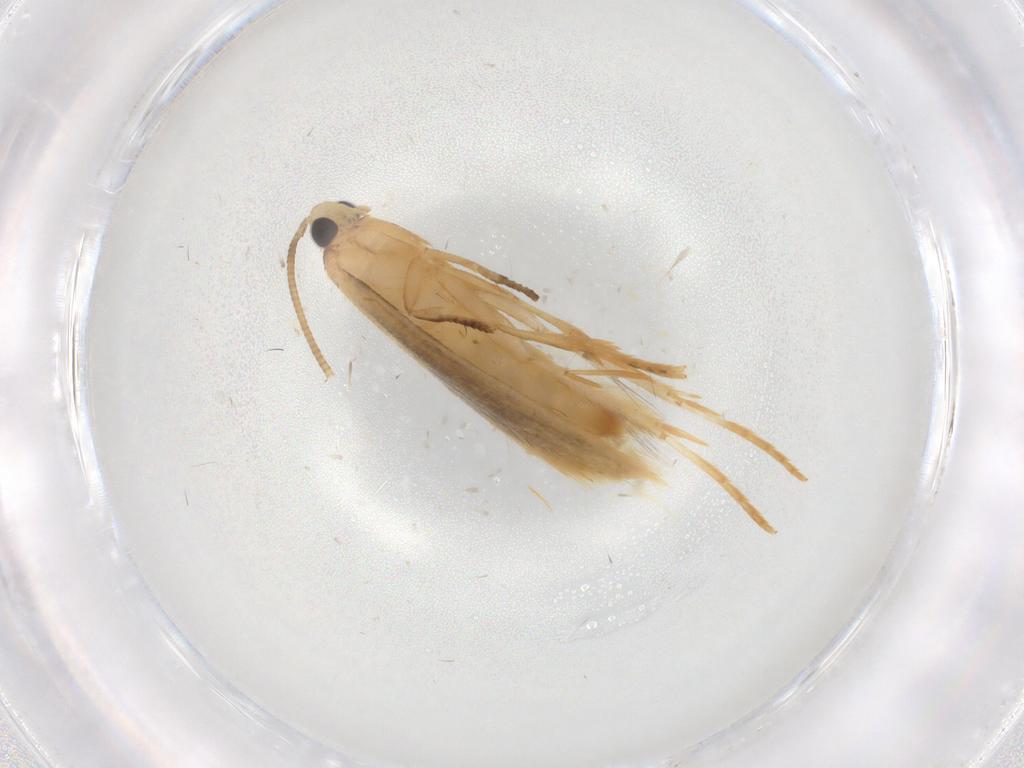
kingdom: Animalia
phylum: Arthropoda
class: Insecta
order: Lepidoptera
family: Tineidae
